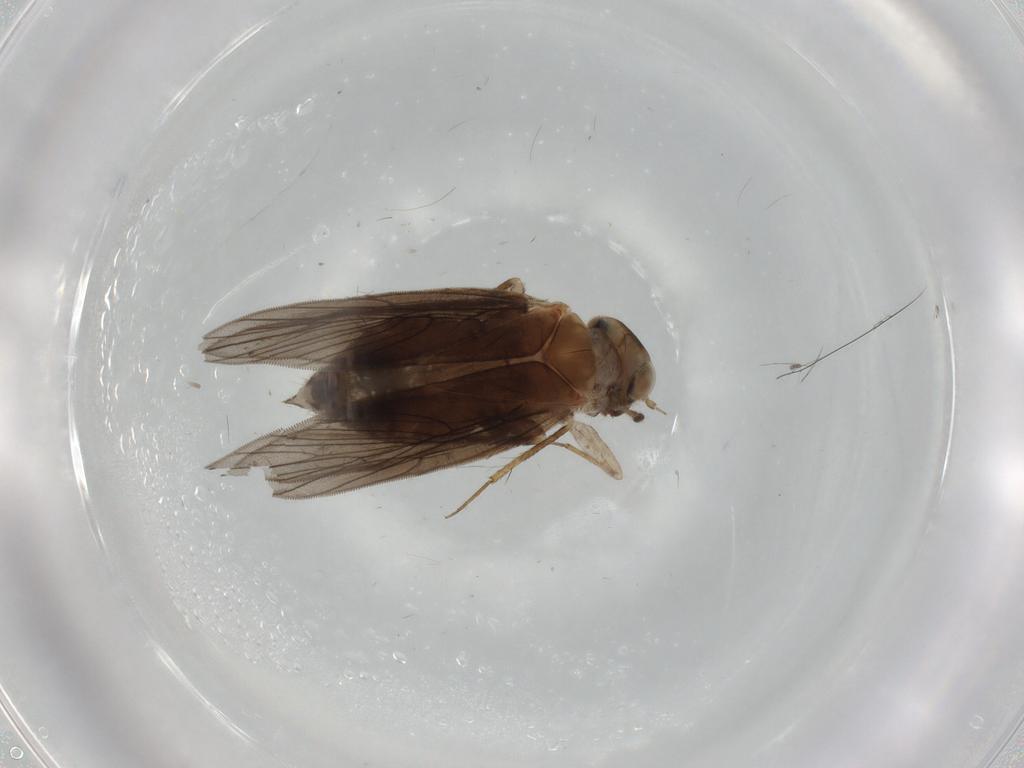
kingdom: Animalia
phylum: Arthropoda
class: Insecta
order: Psocodea
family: Lepidopsocidae
